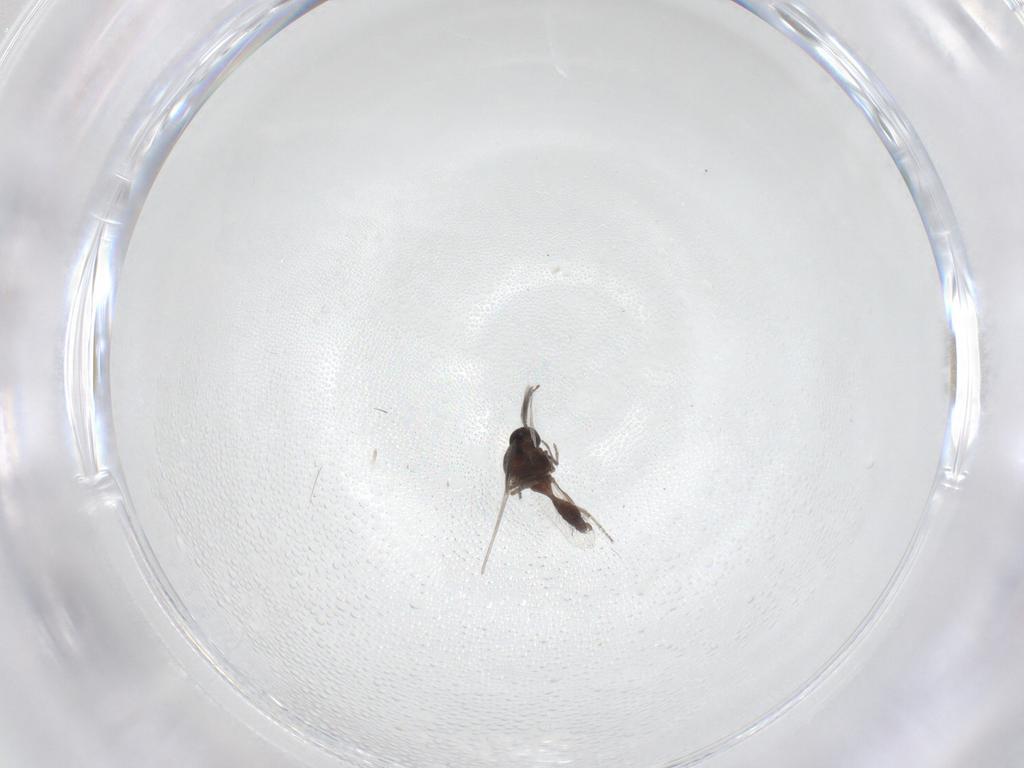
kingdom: Animalia
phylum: Arthropoda
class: Insecta
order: Diptera
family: Ceratopogonidae
